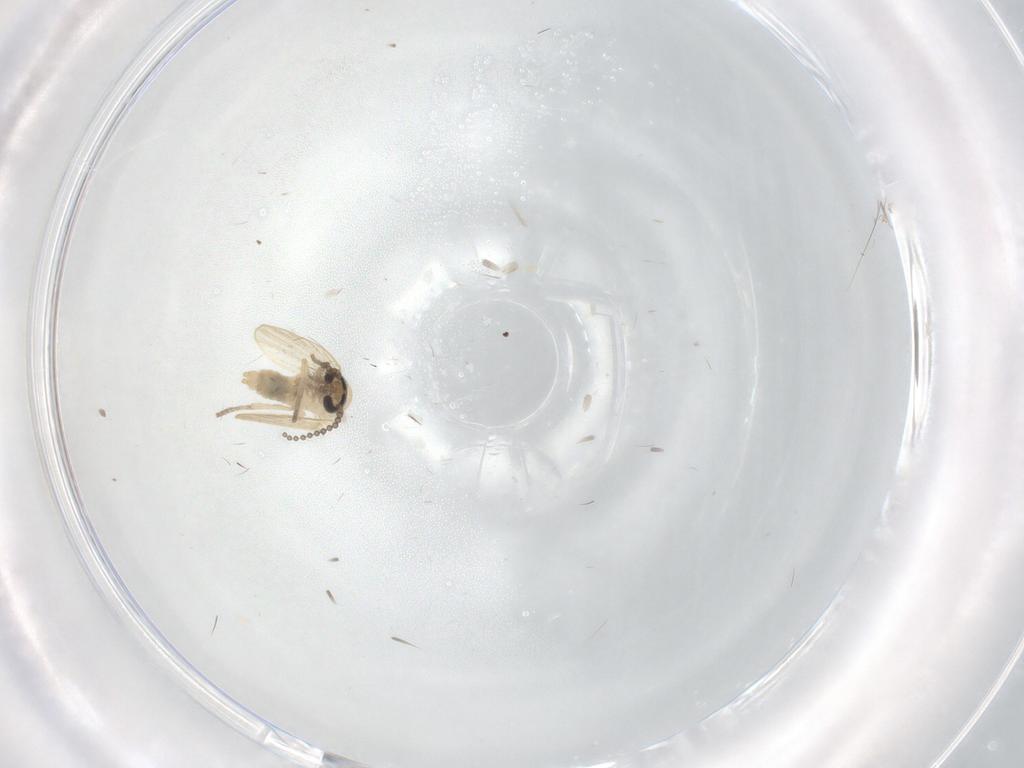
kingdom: Animalia
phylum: Arthropoda
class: Insecta
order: Diptera
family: Psychodidae
